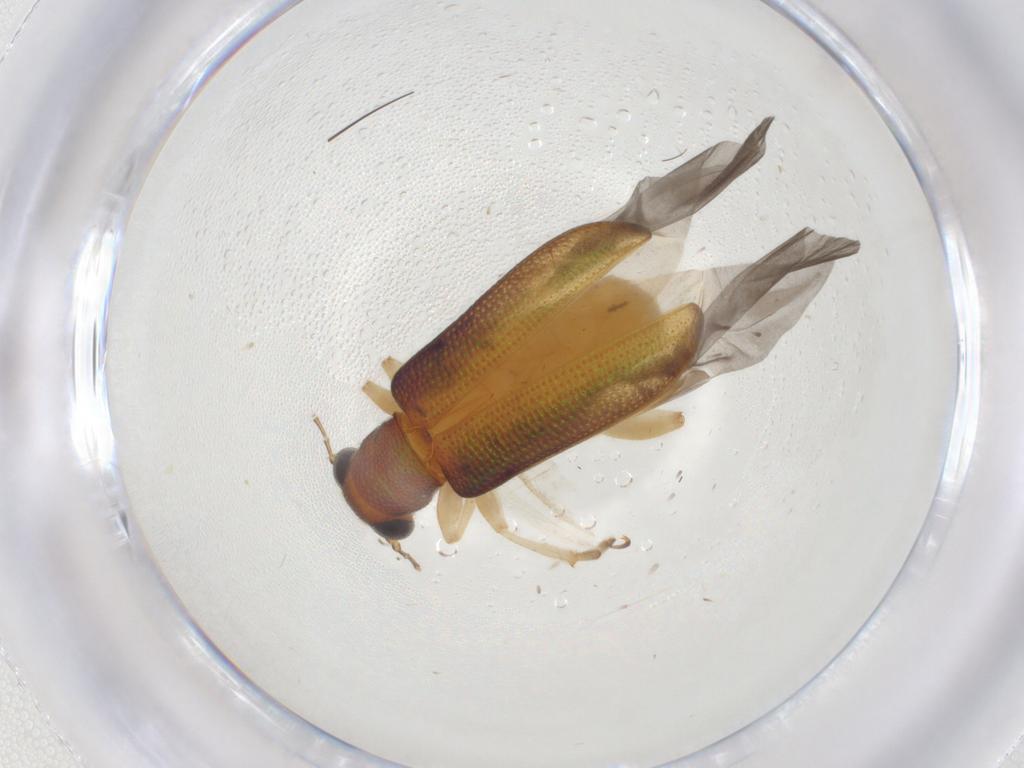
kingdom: Animalia
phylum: Arthropoda
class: Insecta
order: Coleoptera
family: Chrysomelidae
